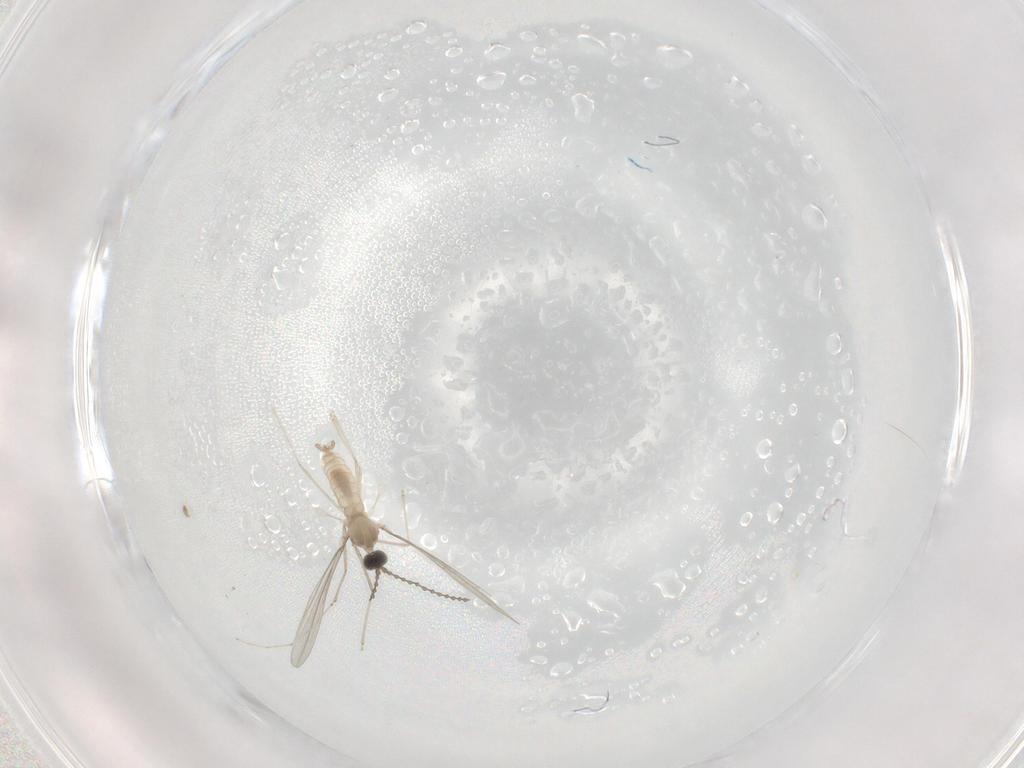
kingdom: Animalia
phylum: Arthropoda
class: Insecta
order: Diptera
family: Cecidomyiidae
